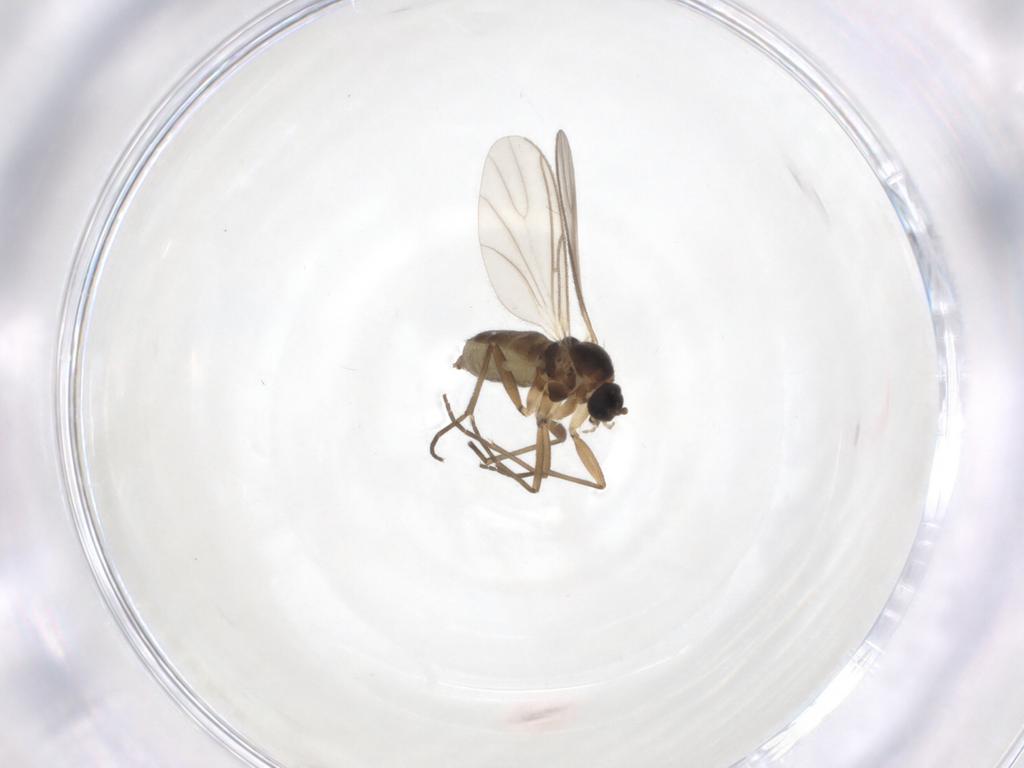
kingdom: Animalia
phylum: Arthropoda
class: Insecta
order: Diptera
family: Sciaridae
